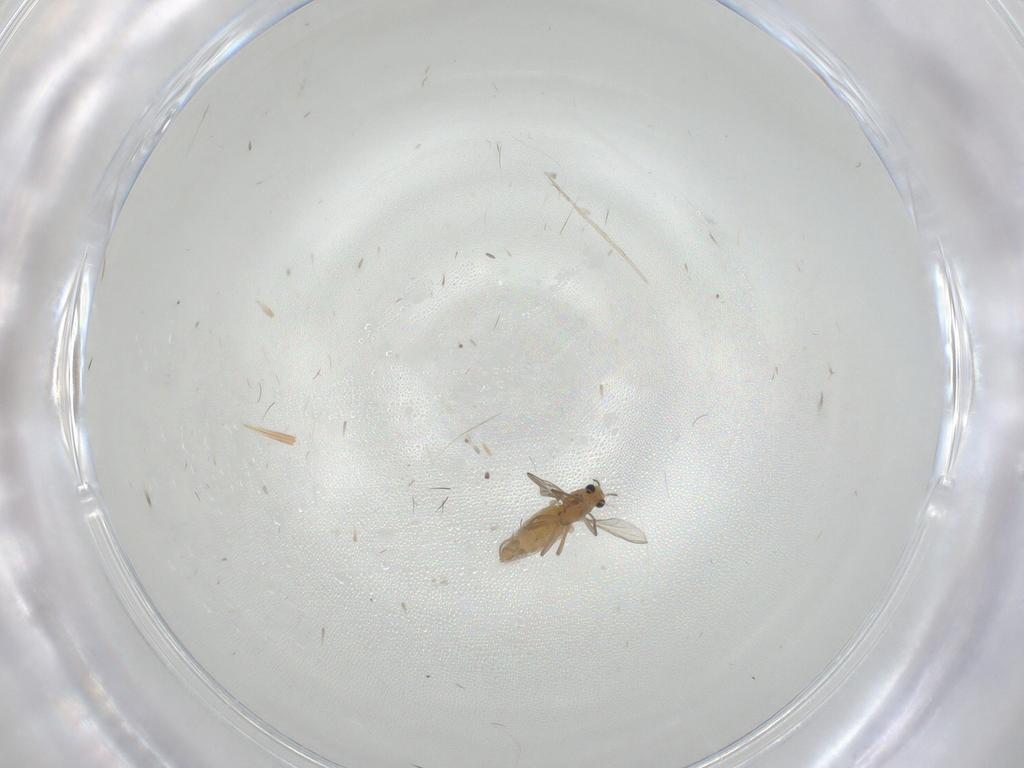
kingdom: Animalia
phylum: Arthropoda
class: Insecta
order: Diptera
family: Chironomidae
